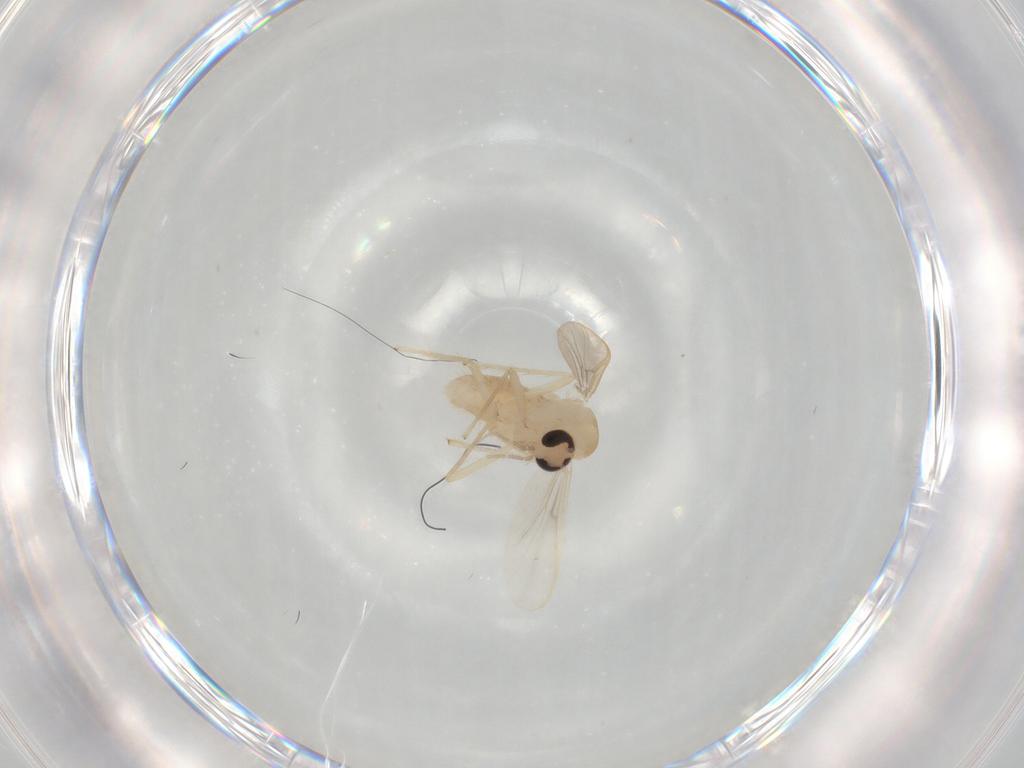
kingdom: Animalia
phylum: Arthropoda
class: Insecta
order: Diptera
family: Chironomidae
